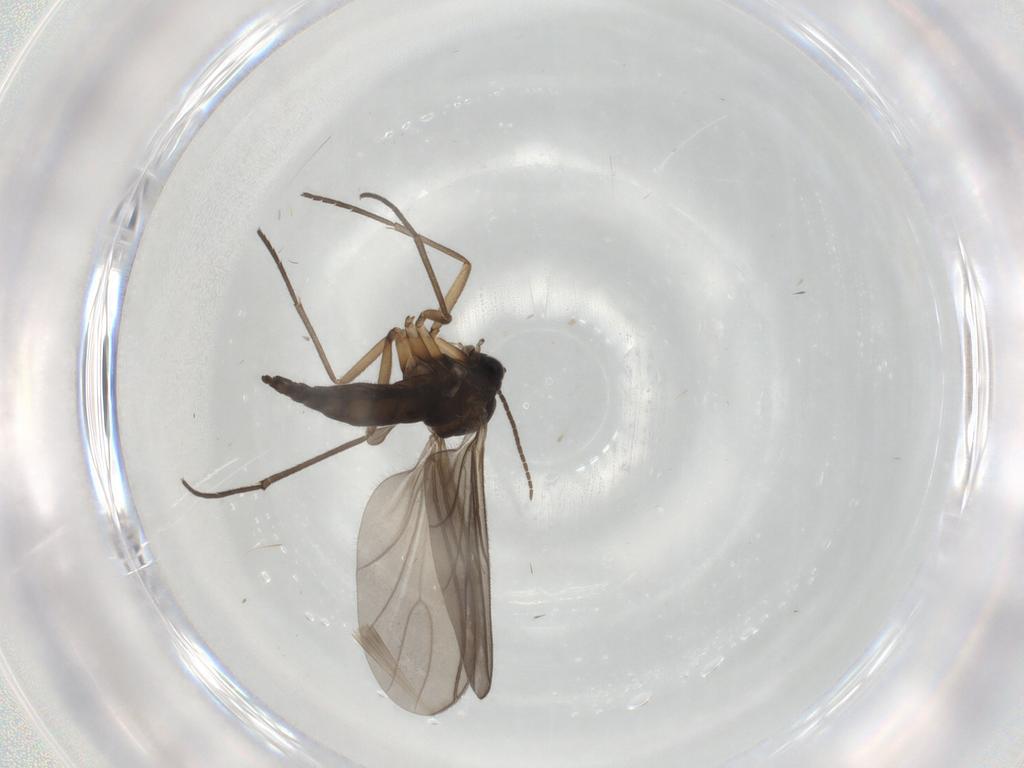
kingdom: Animalia
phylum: Arthropoda
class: Insecta
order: Diptera
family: Sciaridae
